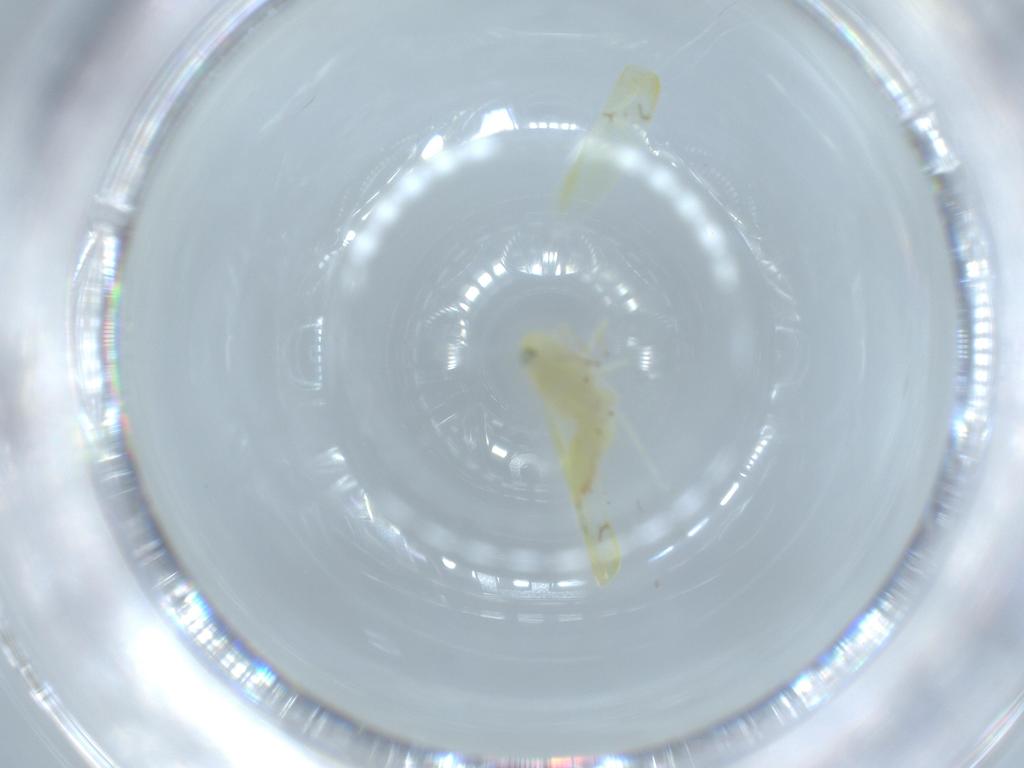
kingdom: Animalia
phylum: Arthropoda
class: Insecta
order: Hemiptera
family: Cicadellidae
